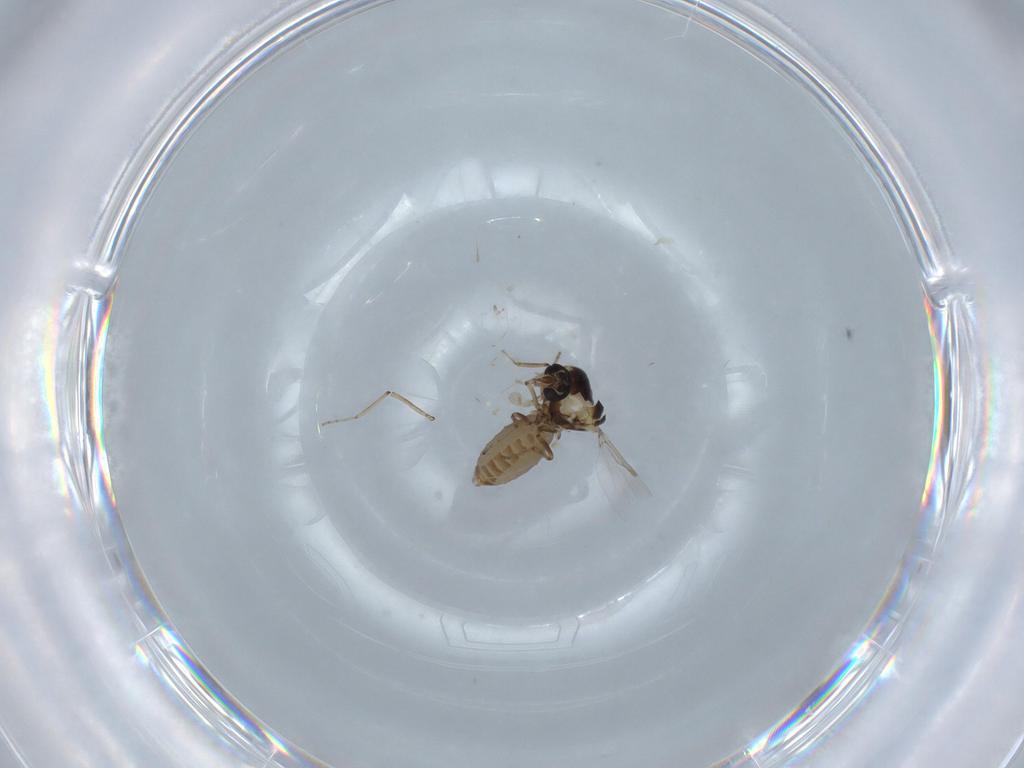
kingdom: Animalia
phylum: Arthropoda
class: Insecta
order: Diptera
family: Ceratopogonidae
